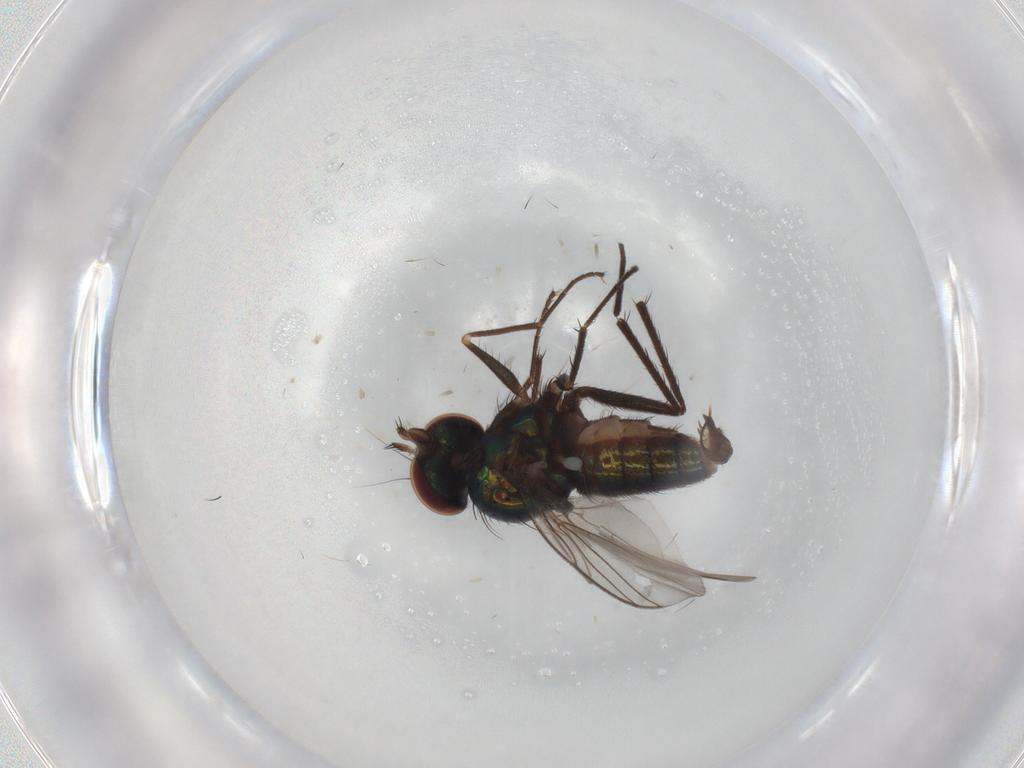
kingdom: Animalia
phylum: Arthropoda
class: Insecta
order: Diptera
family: Dolichopodidae
